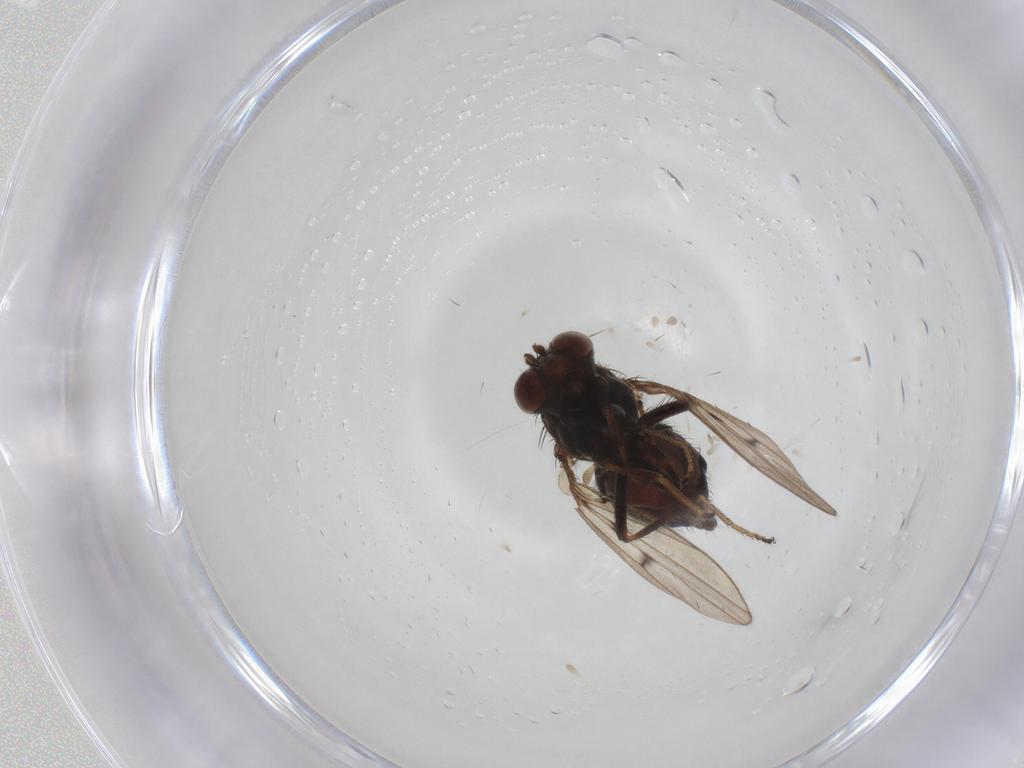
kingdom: Animalia
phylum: Arthropoda
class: Insecta
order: Diptera
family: Ephydridae
